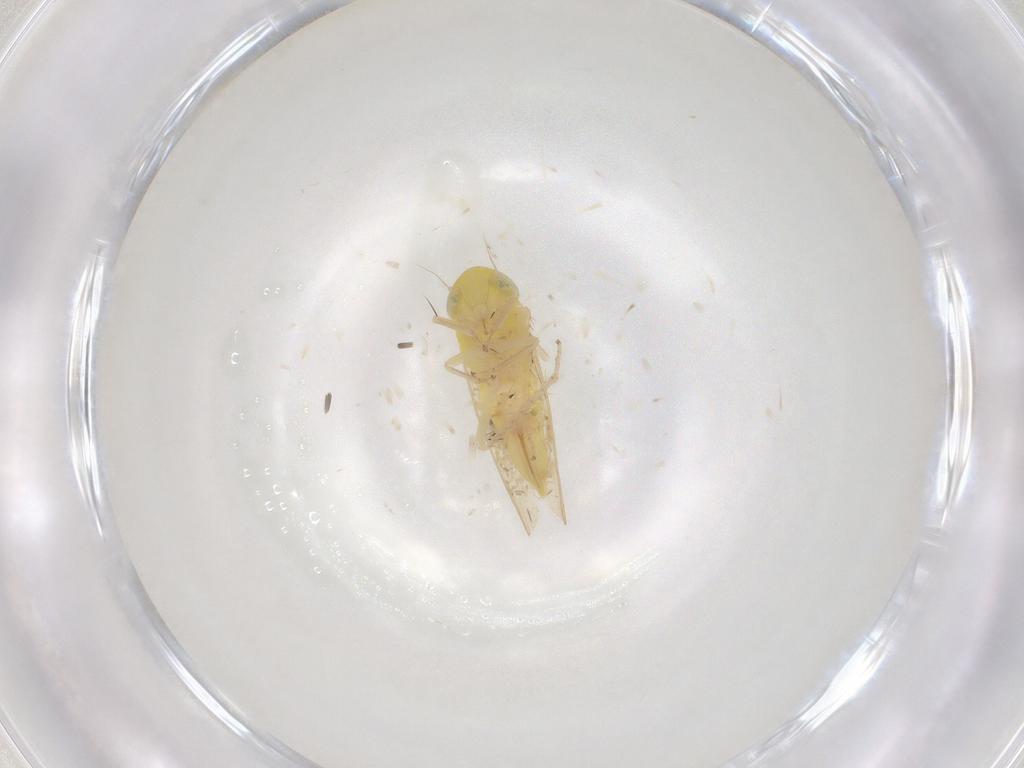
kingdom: Animalia
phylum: Arthropoda
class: Insecta
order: Hemiptera
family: Cicadellidae
